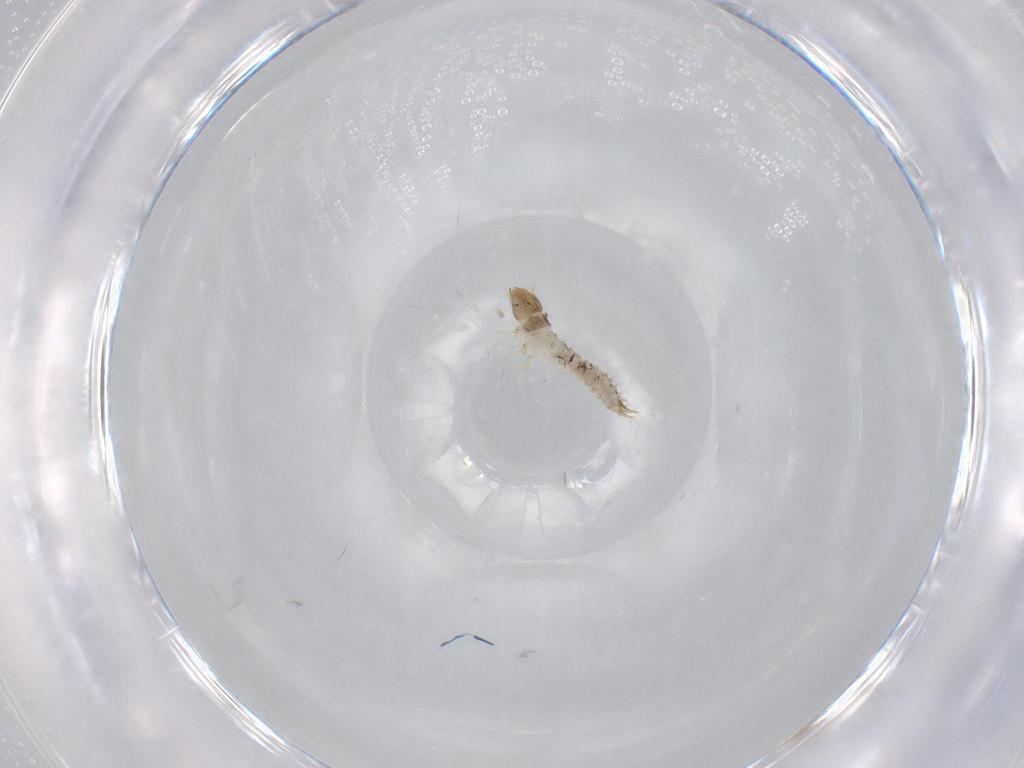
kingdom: Animalia
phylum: Arthropoda
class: Insecta
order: Coleoptera
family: Nitidulidae
